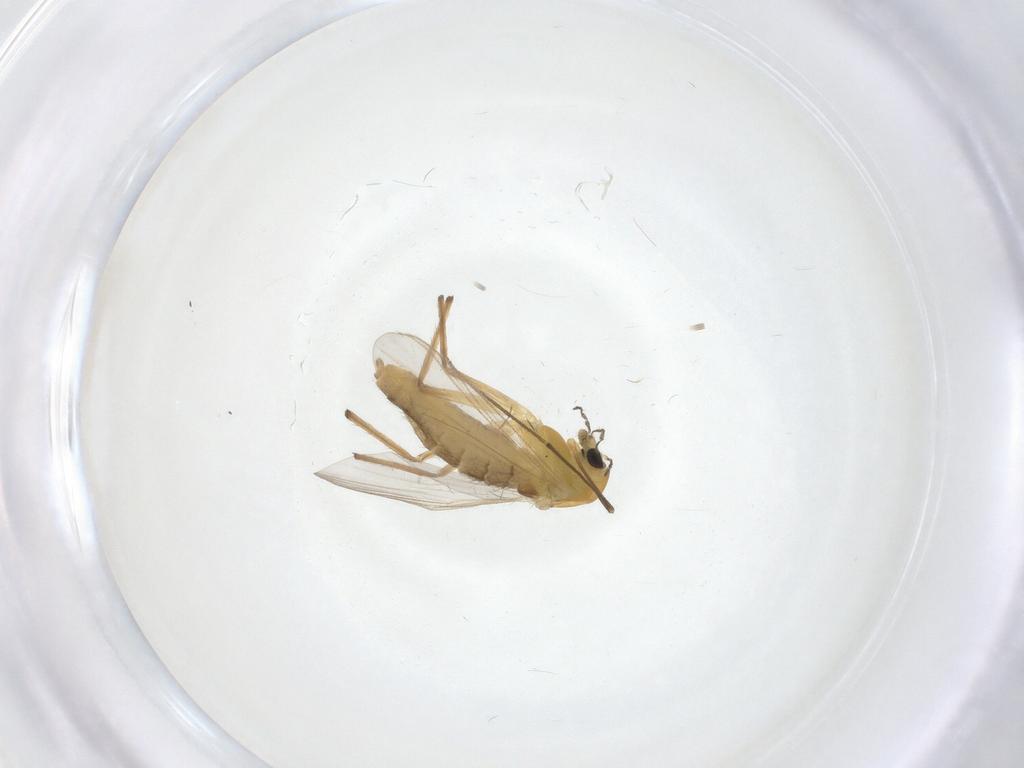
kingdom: Animalia
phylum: Arthropoda
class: Insecta
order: Diptera
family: Chironomidae
